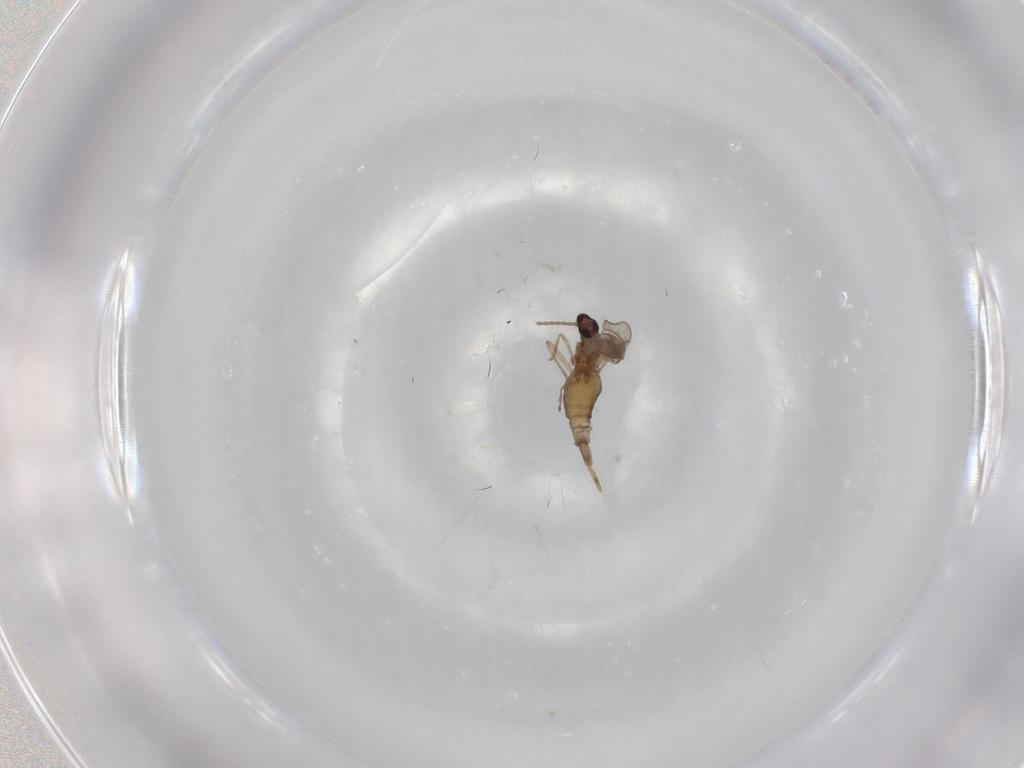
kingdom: Animalia
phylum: Arthropoda
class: Insecta
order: Diptera
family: Cecidomyiidae
